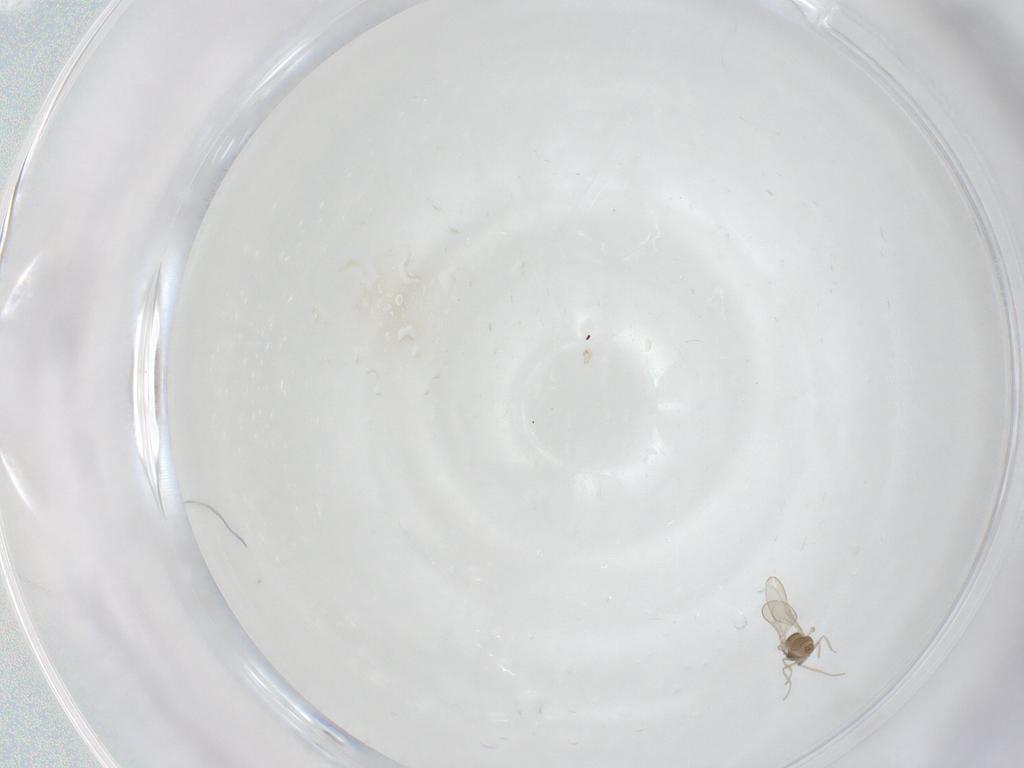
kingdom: Animalia
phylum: Arthropoda
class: Insecta
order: Diptera
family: Cecidomyiidae
